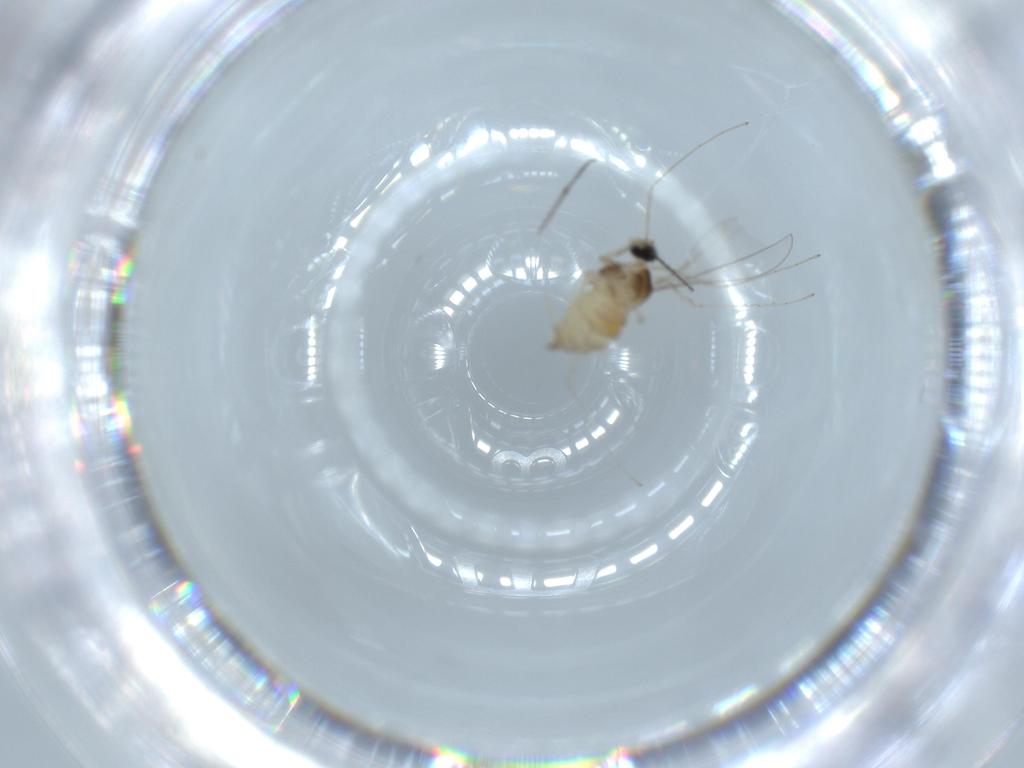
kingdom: Animalia
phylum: Arthropoda
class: Insecta
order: Diptera
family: Cecidomyiidae
